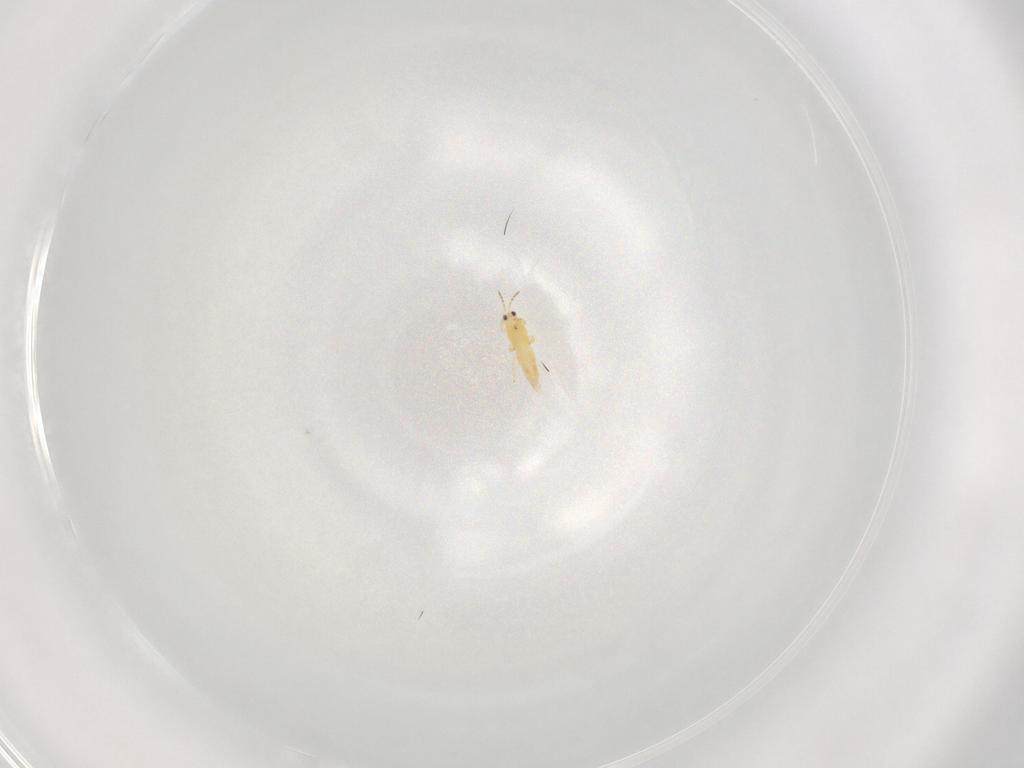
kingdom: Animalia
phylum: Arthropoda
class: Insecta
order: Thysanoptera
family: Thripidae
